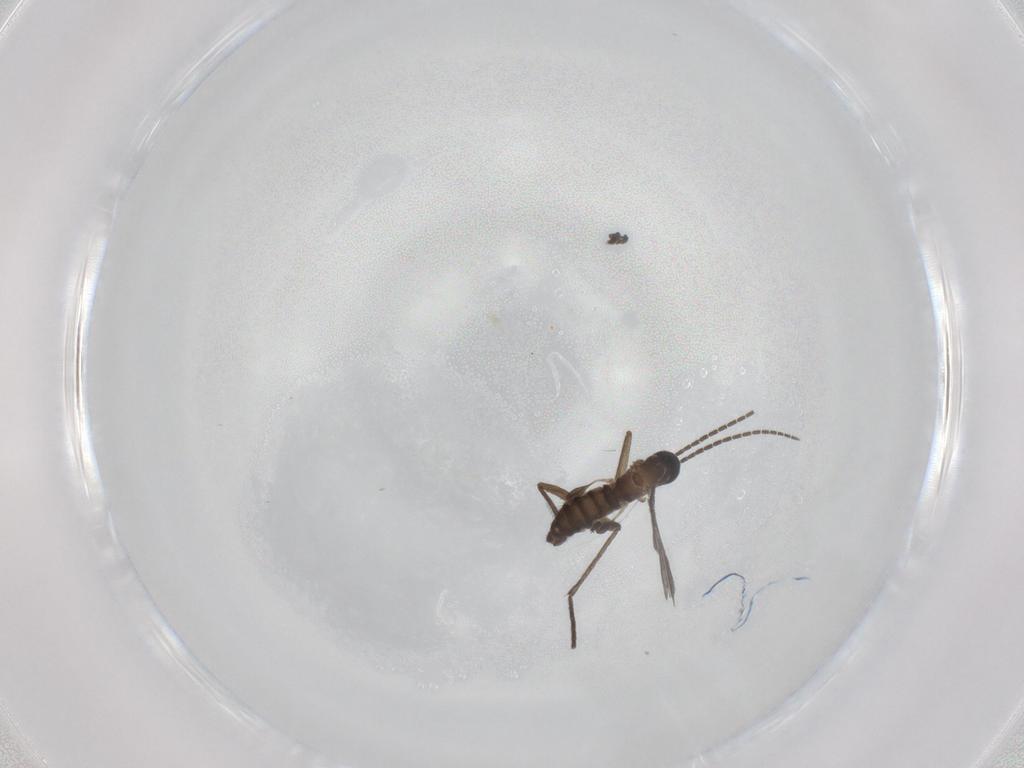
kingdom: Animalia
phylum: Arthropoda
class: Insecta
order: Diptera
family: Sciaridae
